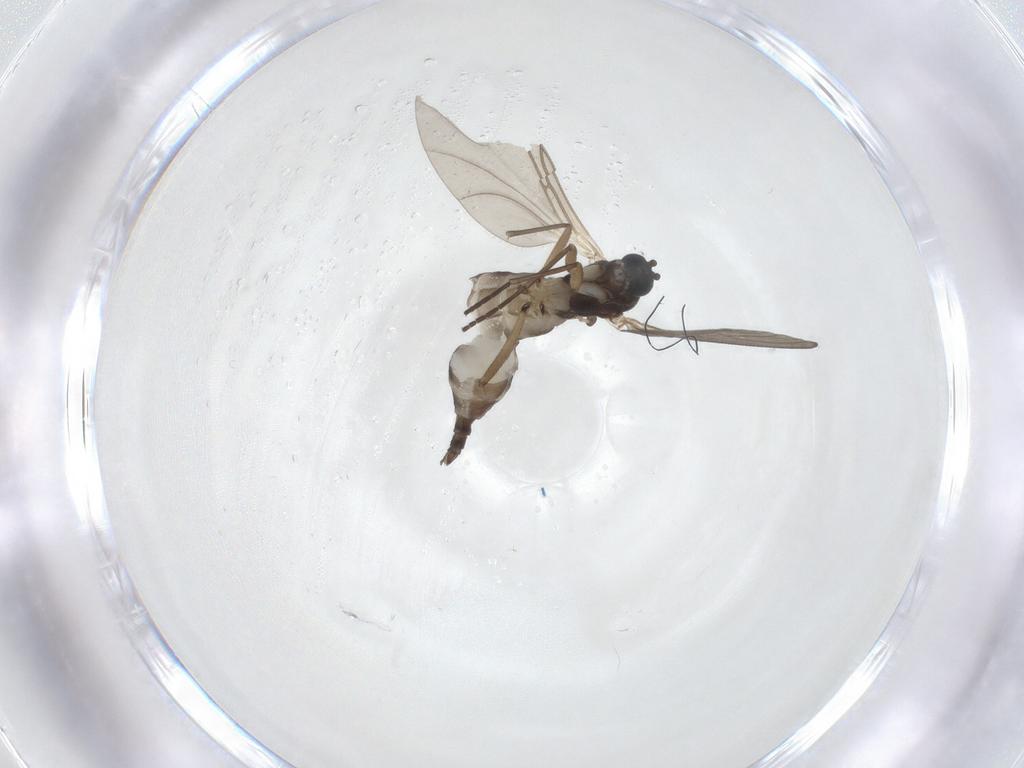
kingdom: Animalia
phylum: Arthropoda
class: Insecta
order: Diptera
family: Sciaridae
